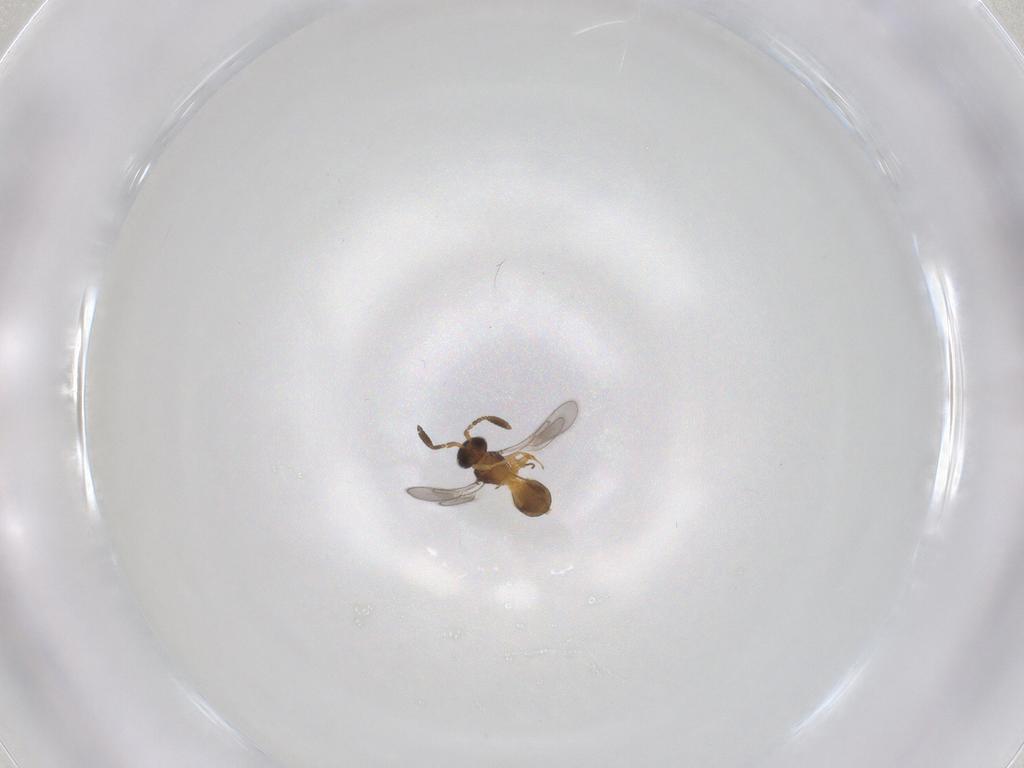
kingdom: Animalia
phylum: Arthropoda
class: Insecta
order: Hymenoptera
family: Scelionidae
